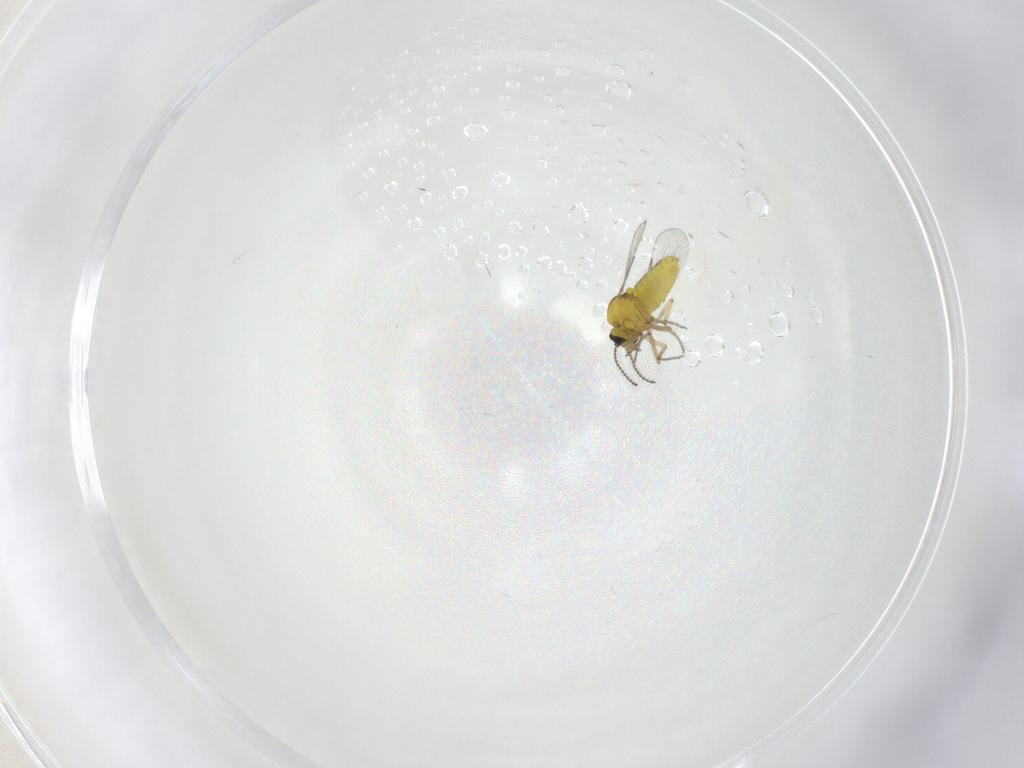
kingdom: Animalia
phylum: Arthropoda
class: Insecta
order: Diptera
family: Ceratopogonidae
